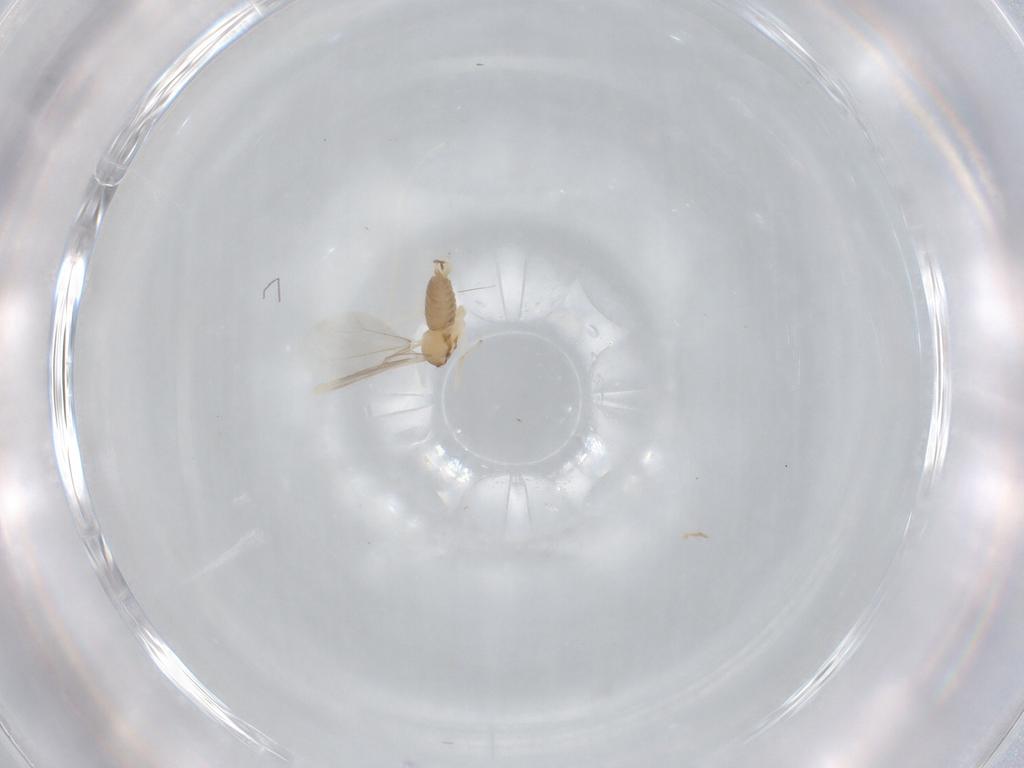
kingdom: Animalia
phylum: Arthropoda
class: Insecta
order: Diptera
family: Cecidomyiidae
